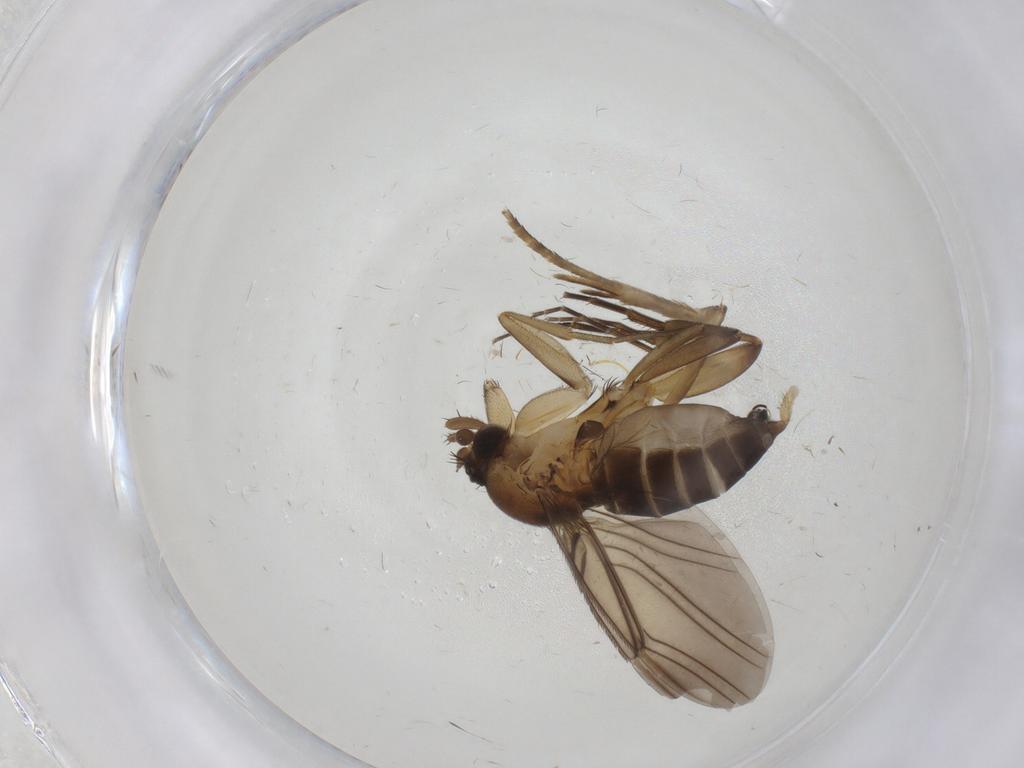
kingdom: Animalia
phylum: Arthropoda
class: Insecta
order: Diptera
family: Phoridae
